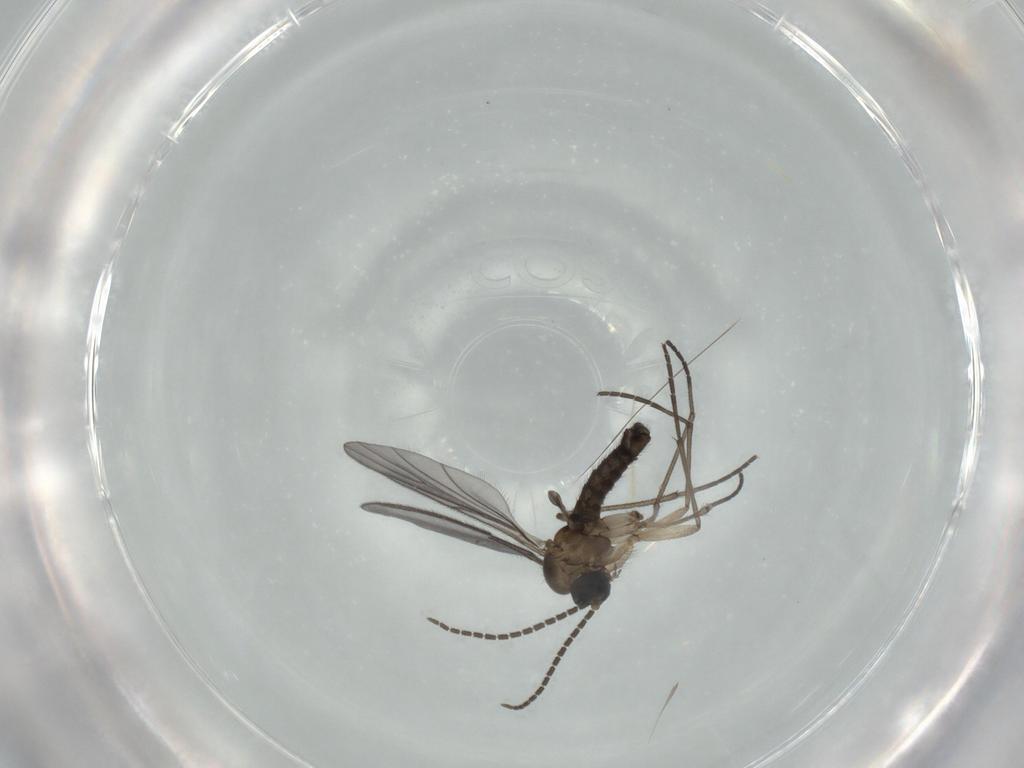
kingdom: Animalia
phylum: Arthropoda
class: Insecta
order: Diptera
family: Sciaridae
